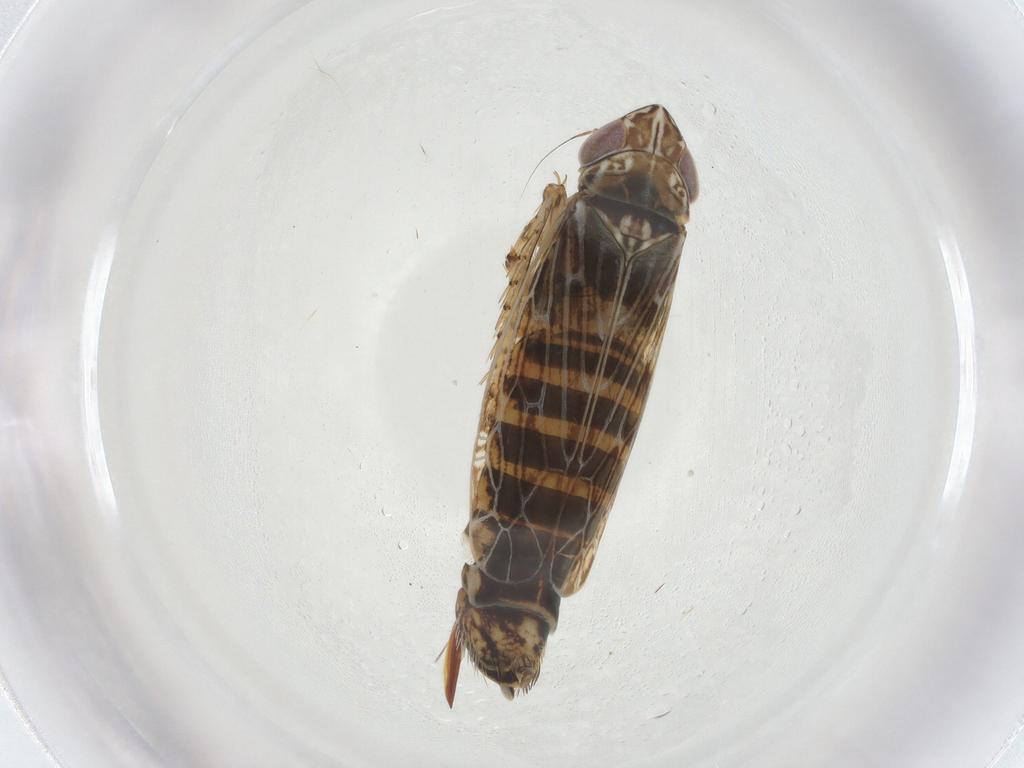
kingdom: Animalia
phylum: Arthropoda
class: Insecta
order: Hemiptera
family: Cicadellidae
